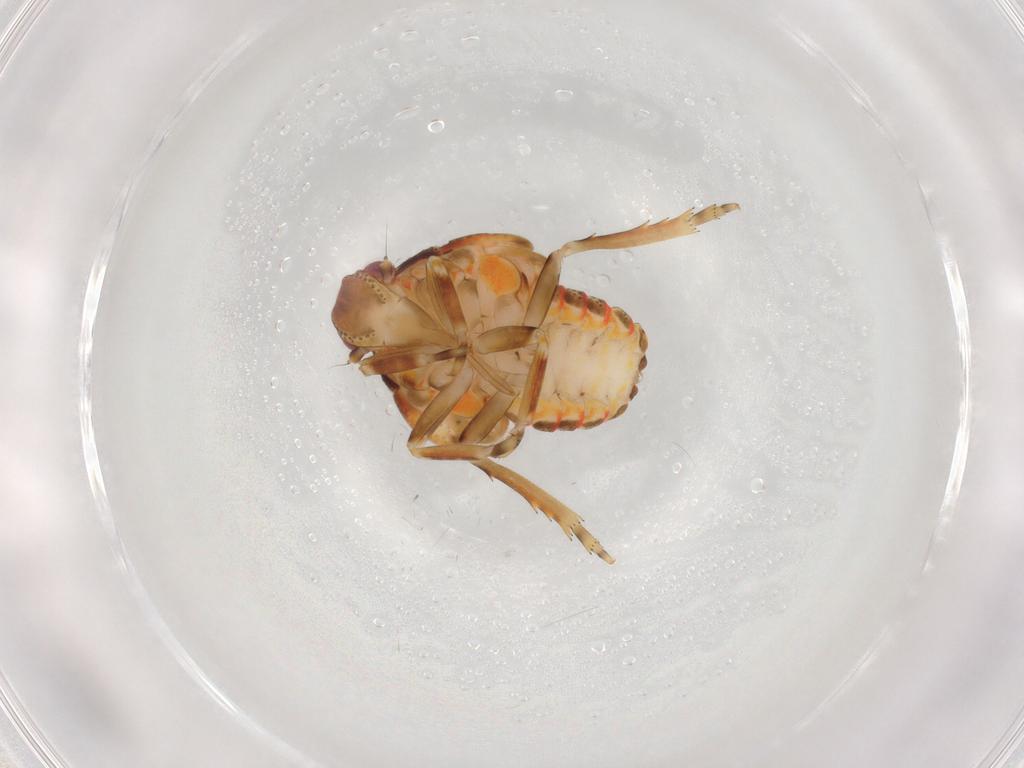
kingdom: Animalia
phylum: Arthropoda
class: Insecta
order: Hemiptera
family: Flatidae
